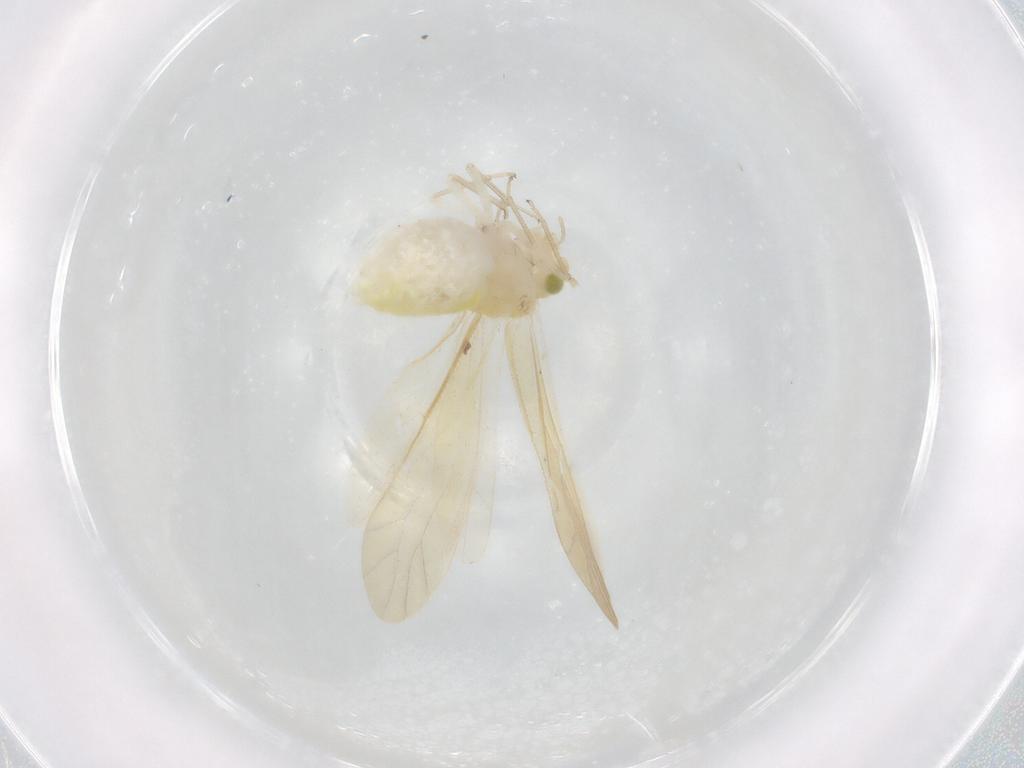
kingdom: Animalia
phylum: Arthropoda
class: Insecta
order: Psocodea
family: Caeciliusidae
